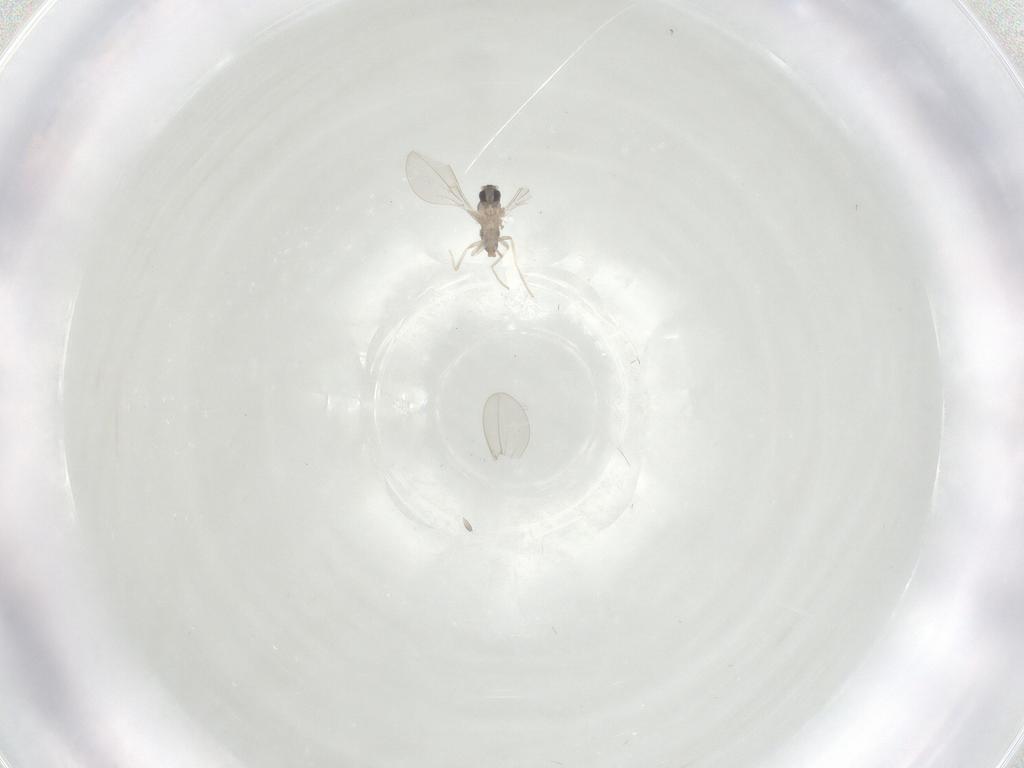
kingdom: Animalia
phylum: Arthropoda
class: Insecta
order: Diptera
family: Cecidomyiidae
